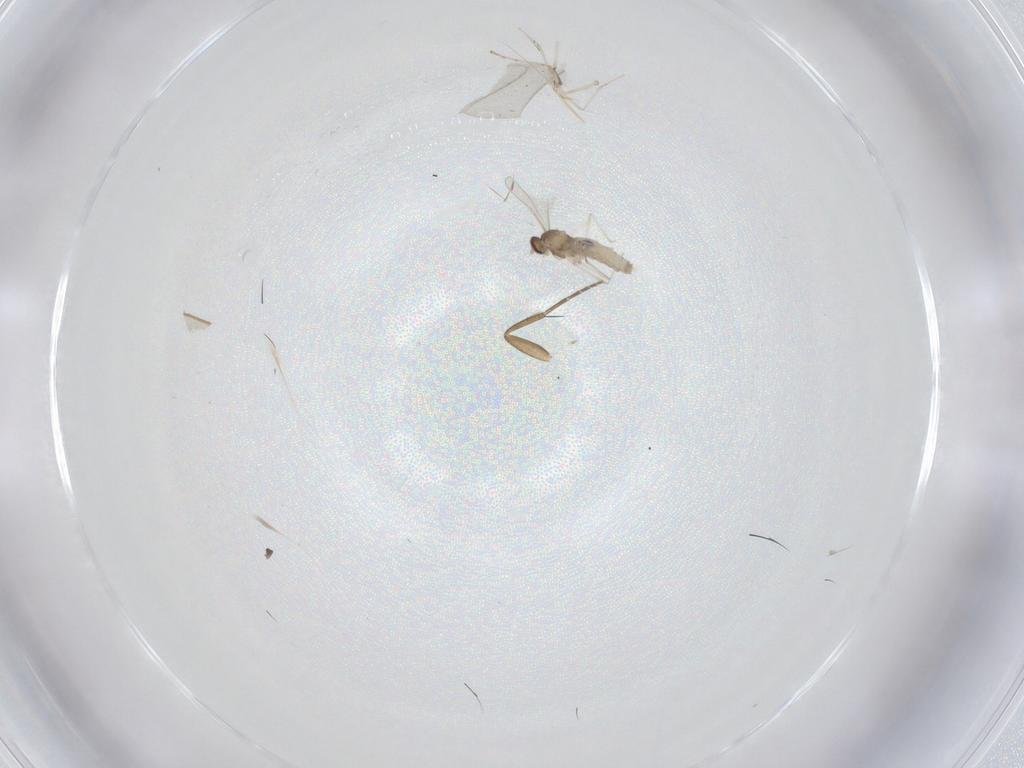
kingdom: Animalia
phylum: Arthropoda
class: Insecta
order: Diptera
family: Cecidomyiidae
